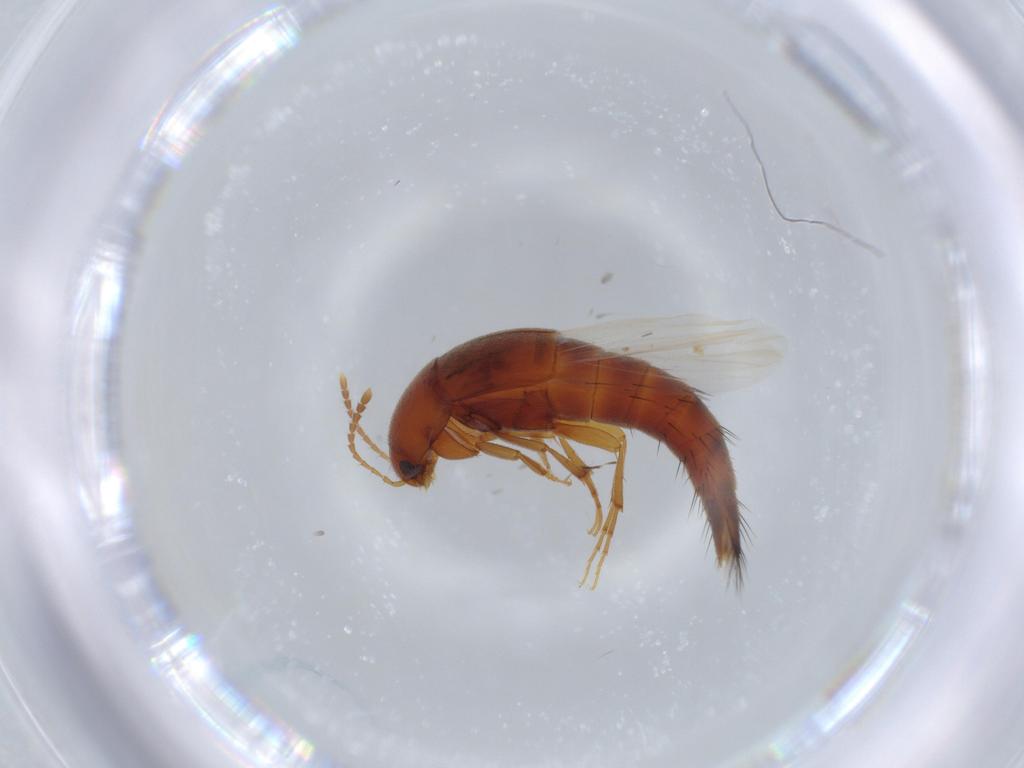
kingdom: Animalia
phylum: Arthropoda
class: Insecta
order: Coleoptera
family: Staphylinidae
